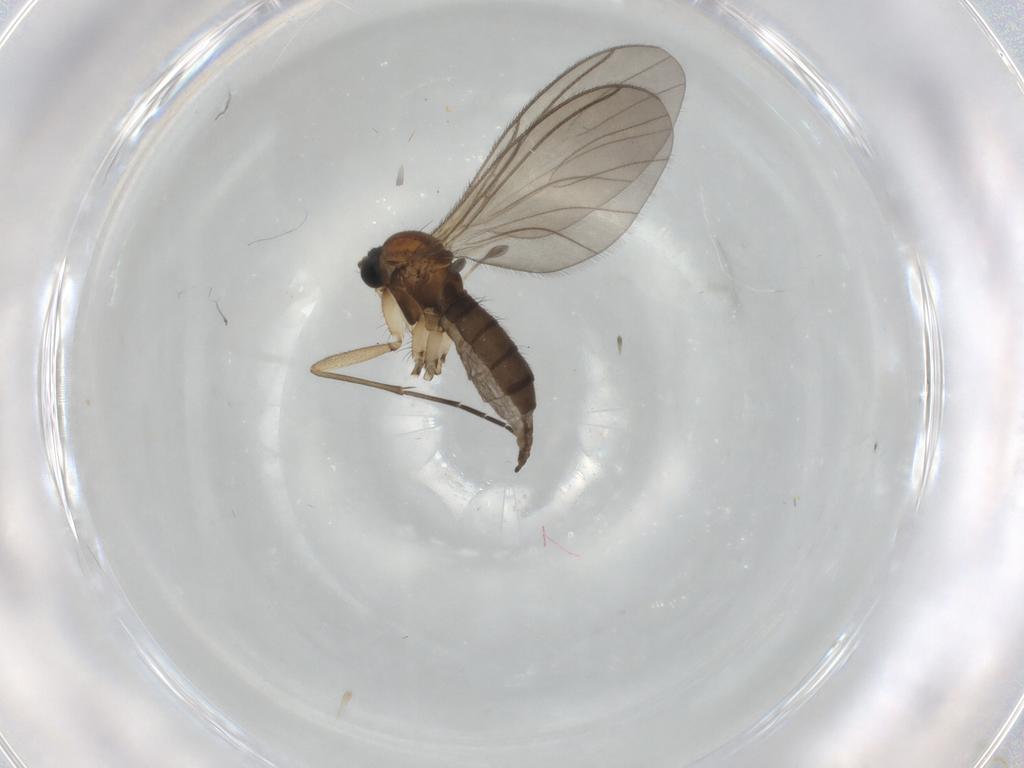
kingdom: Animalia
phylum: Arthropoda
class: Insecta
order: Diptera
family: Sciaridae
